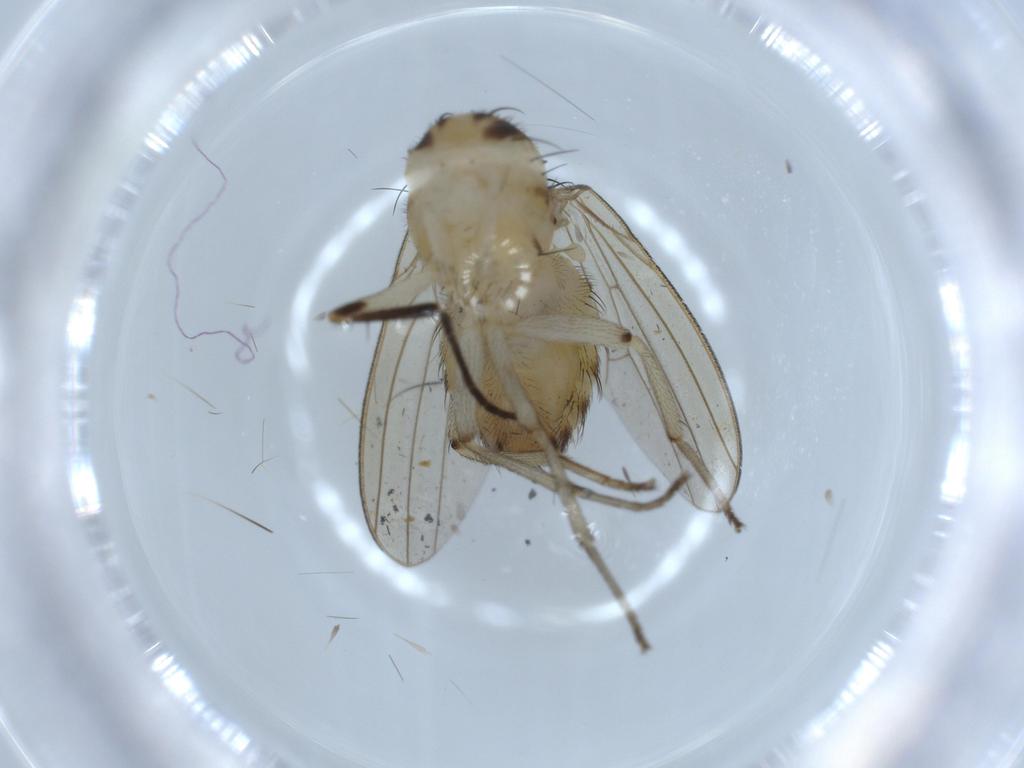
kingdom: Animalia
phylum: Arthropoda
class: Insecta
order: Diptera
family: Lauxaniidae
